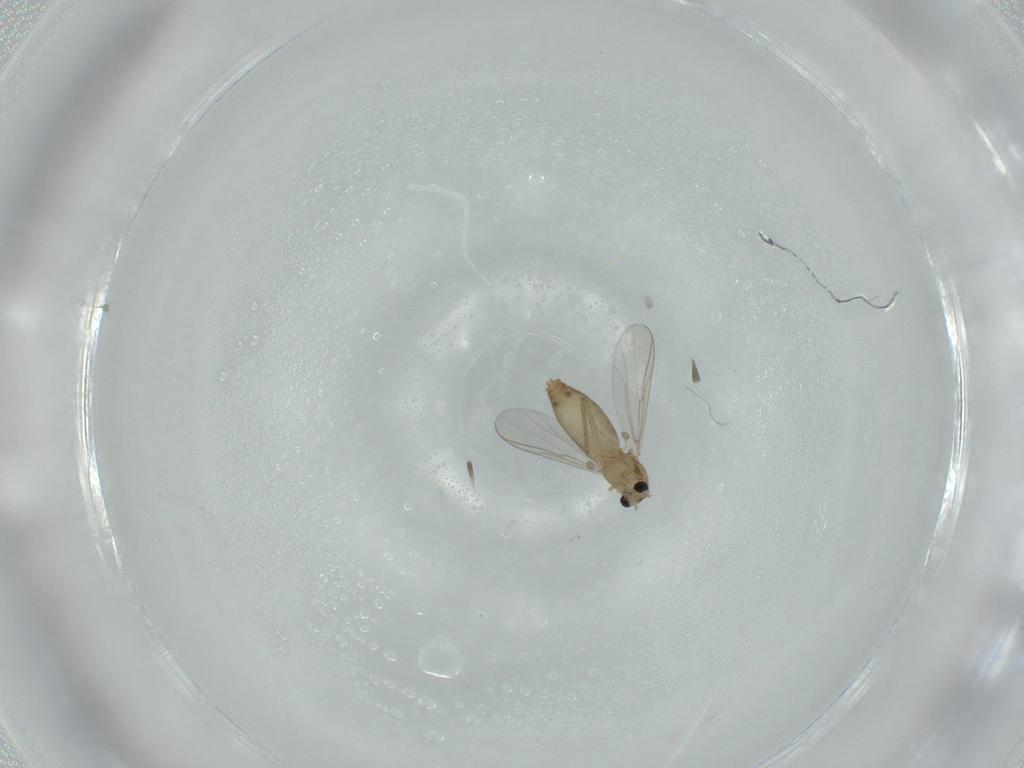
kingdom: Animalia
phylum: Arthropoda
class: Insecta
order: Diptera
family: Chironomidae
